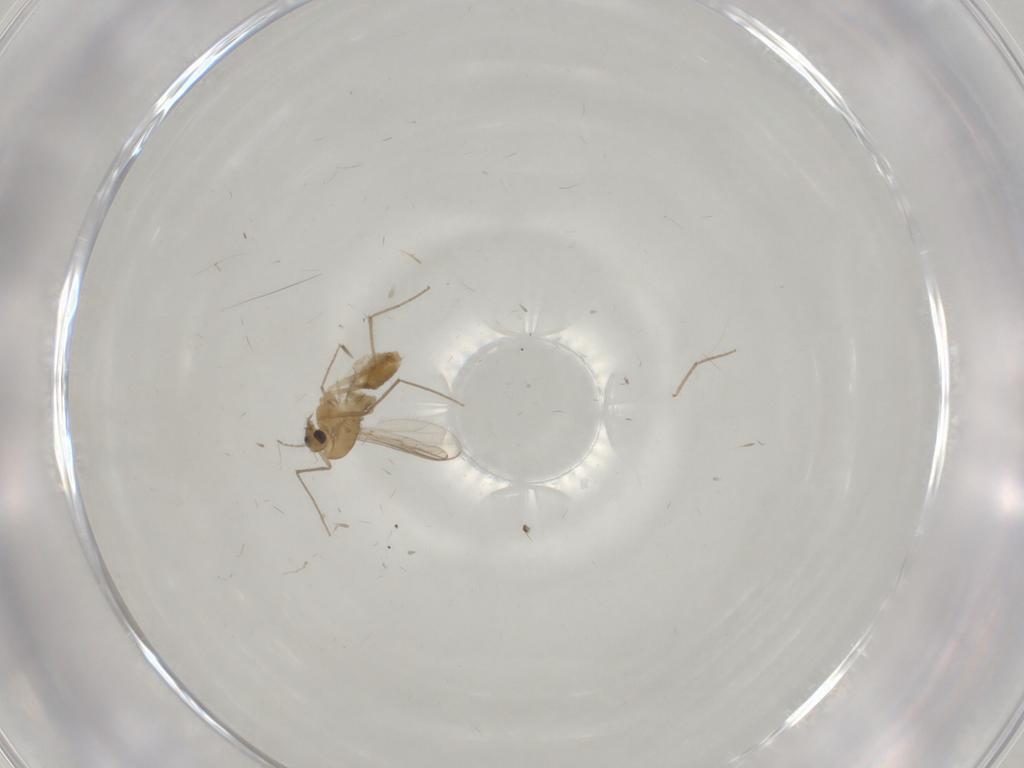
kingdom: Animalia
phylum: Arthropoda
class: Insecta
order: Diptera
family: Chironomidae
